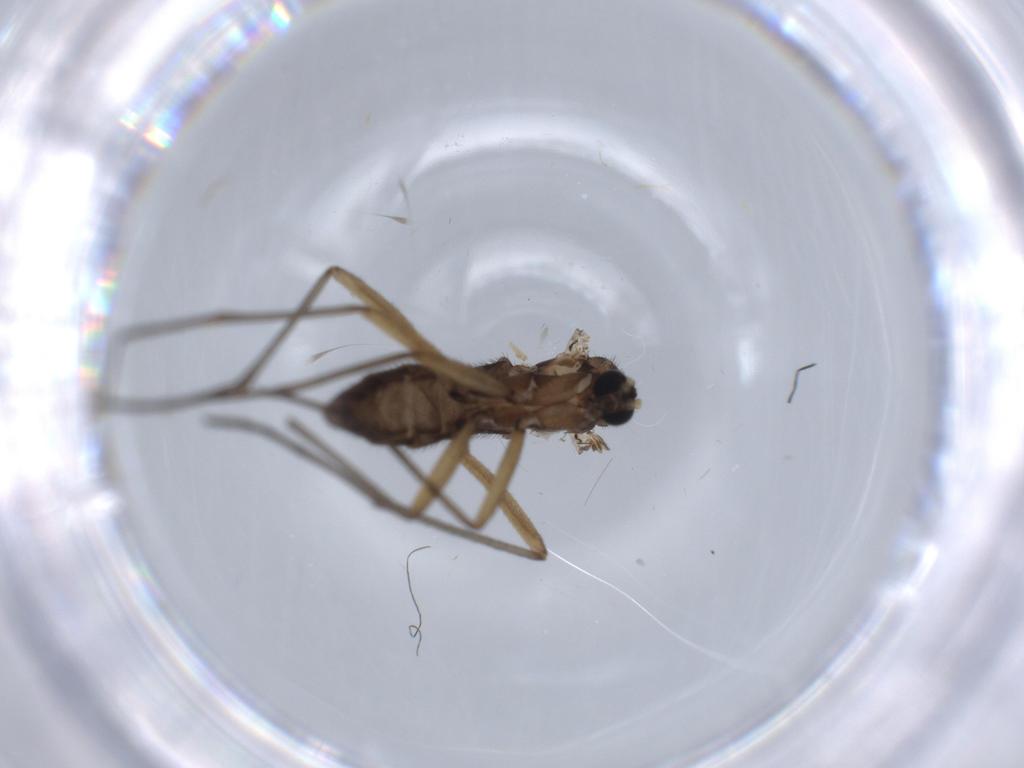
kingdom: Animalia
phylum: Arthropoda
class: Insecta
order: Diptera
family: Sciaridae
